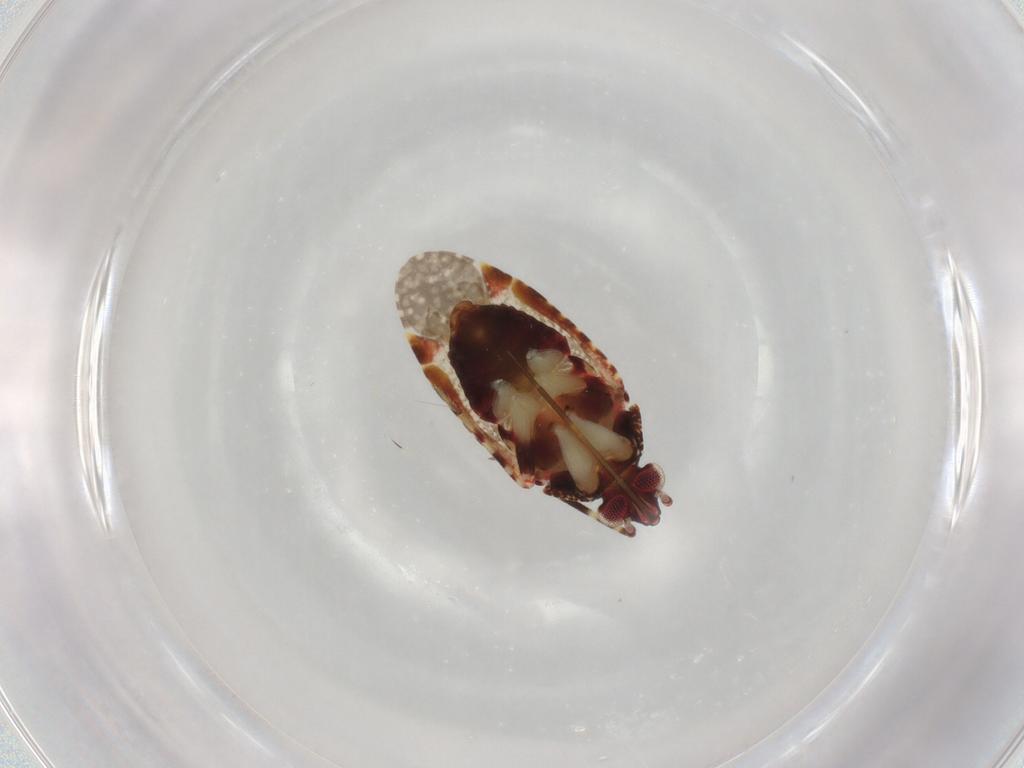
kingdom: Animalia
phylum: Arthropoda
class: Insecta
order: Hemiptera
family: Miridae
